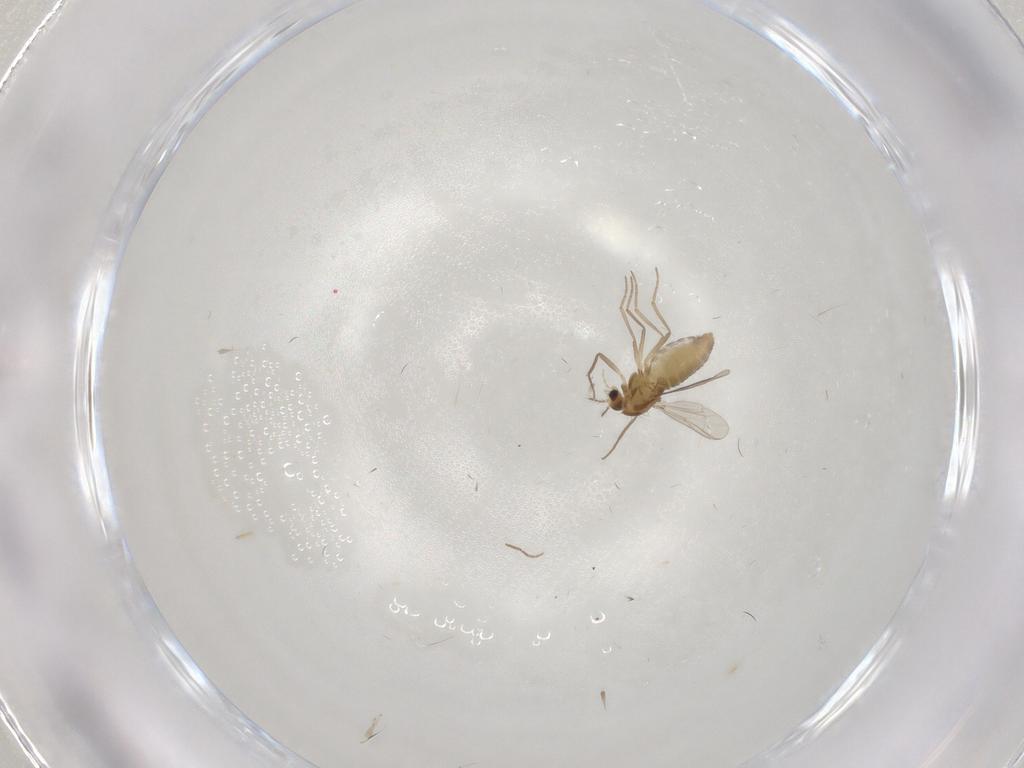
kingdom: Animalia
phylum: Arthropoda
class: Insecta
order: Diptera
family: Chironomidae
